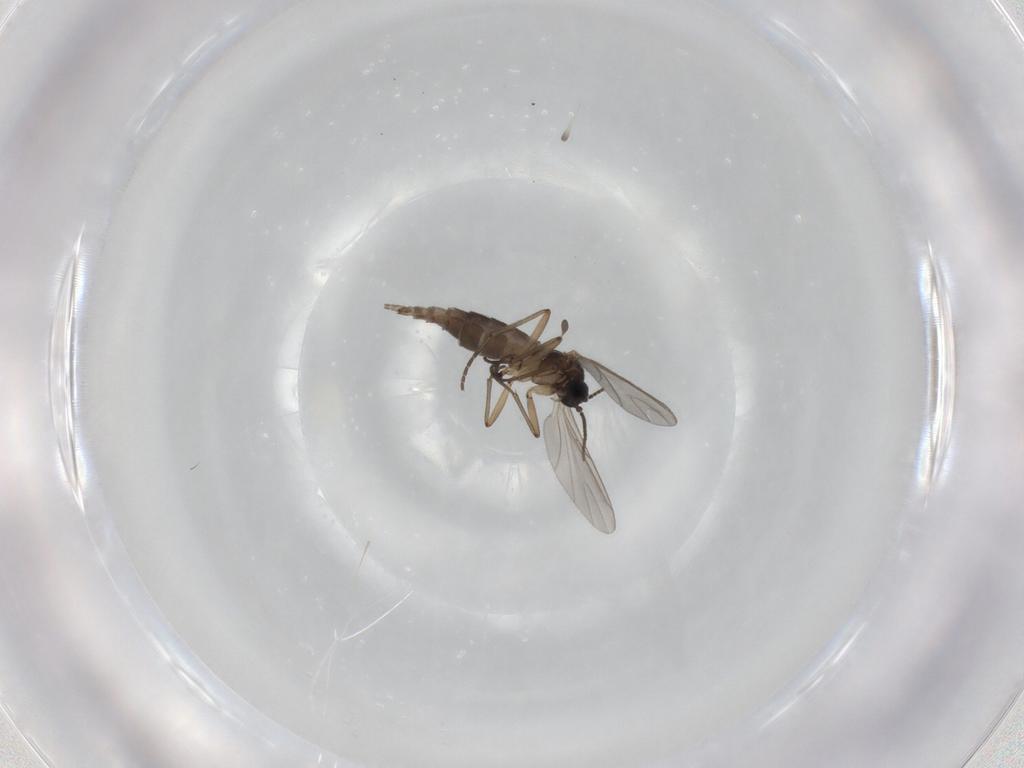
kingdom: Animalia
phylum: Arthropoda
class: Insecta
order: Diptera
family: Sciaridae
